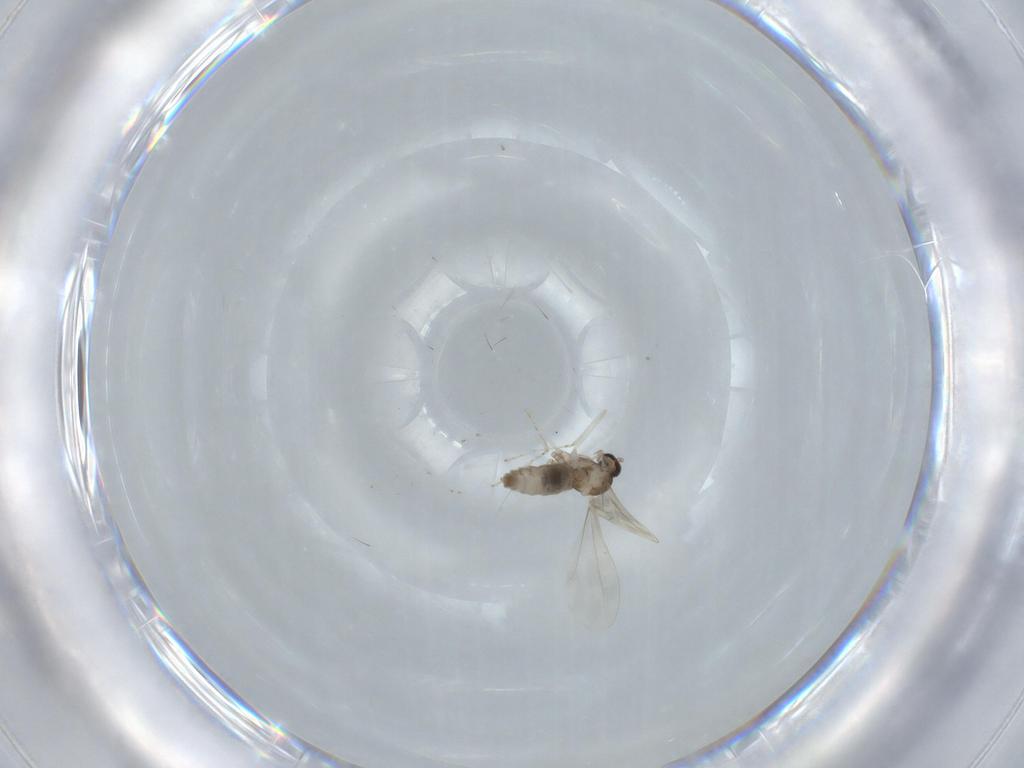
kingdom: Animalia
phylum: Arthropoda
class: Insecta
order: Diptera
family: Cecidomyiidae
